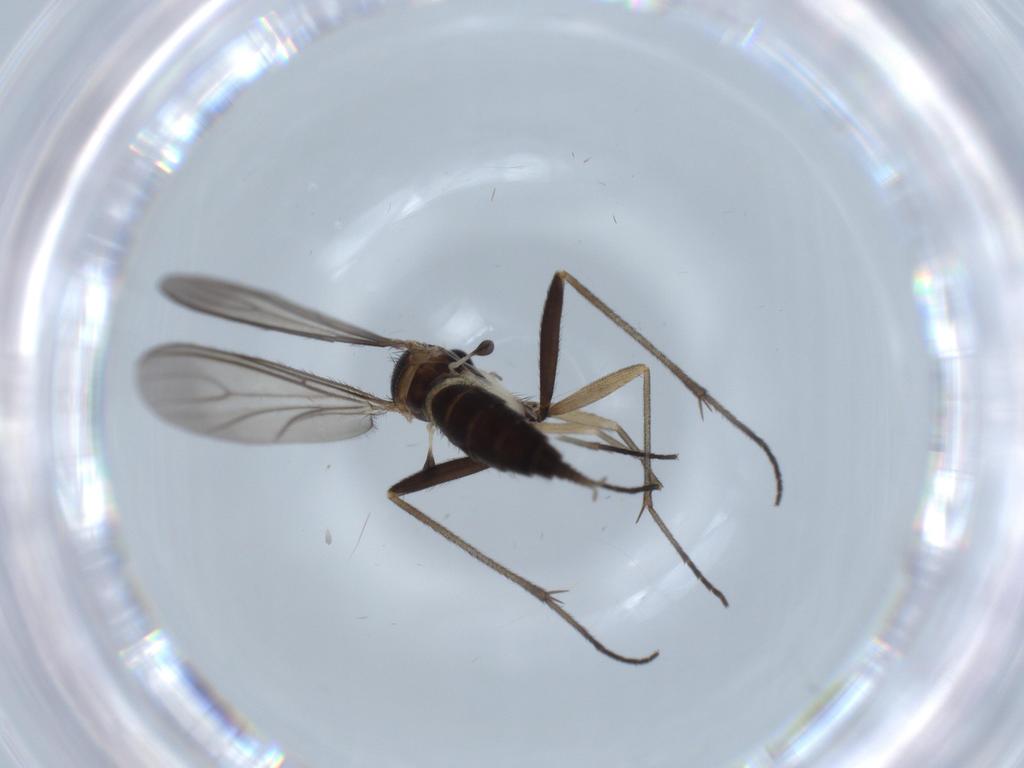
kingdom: Animalia
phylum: Arthropoda
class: Insecta
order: Diptera
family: Sciaridae
